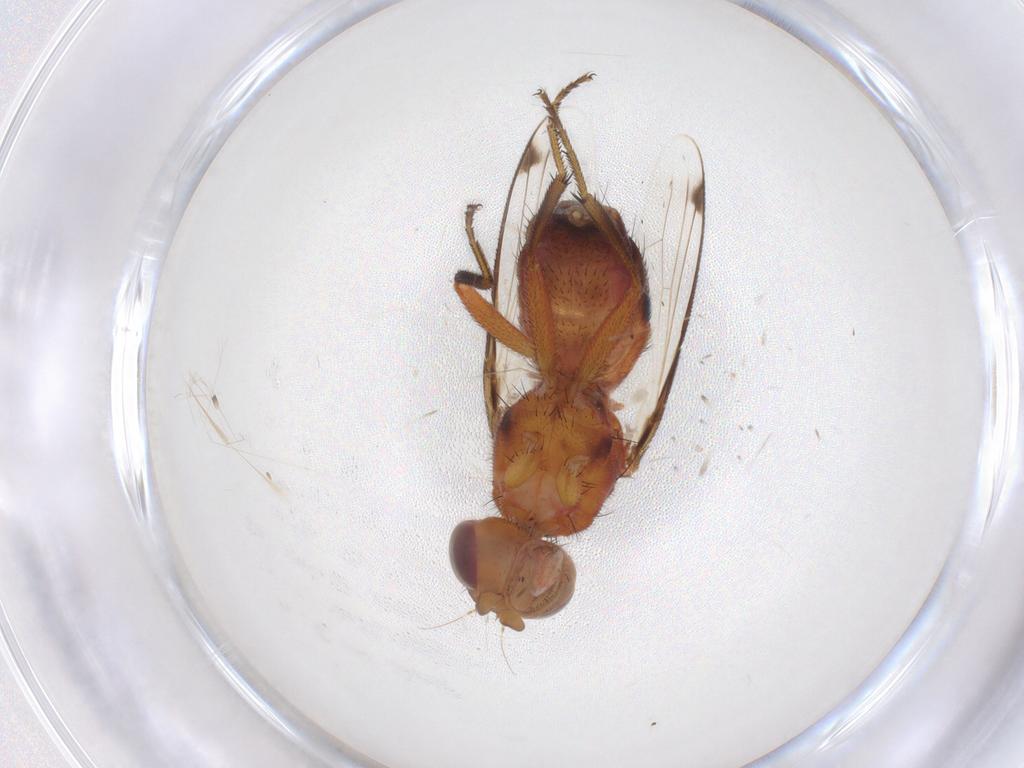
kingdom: Animalia
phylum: Arthropoda
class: Insecta
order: Diptera
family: Richardiidae
